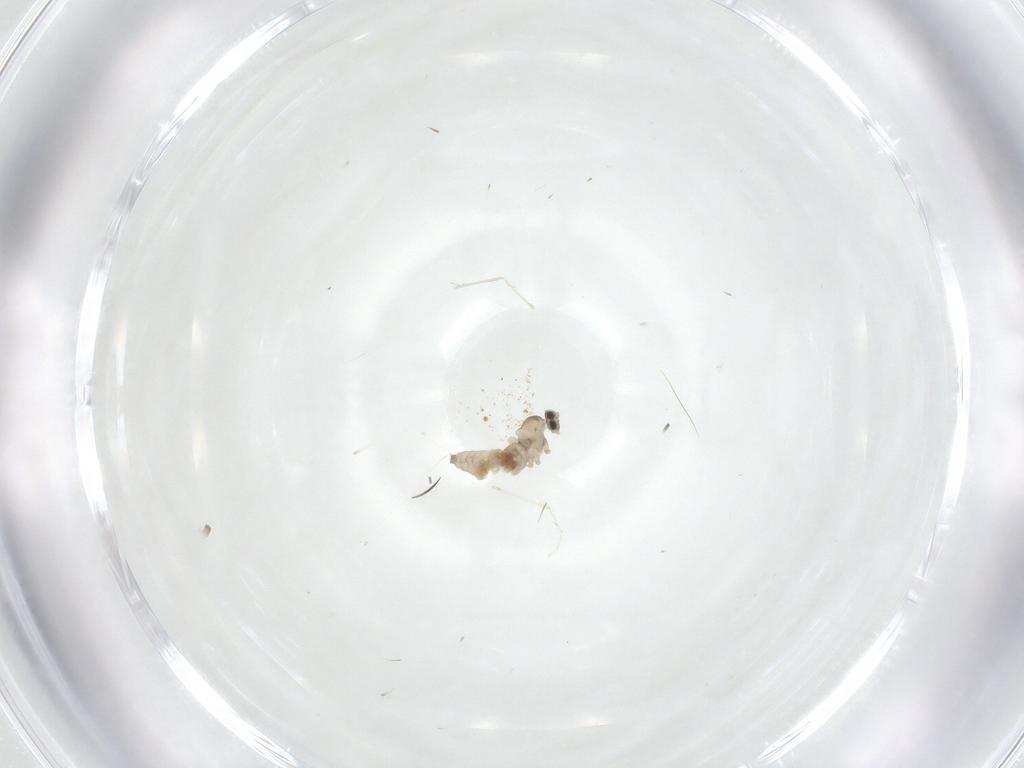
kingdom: Animalia
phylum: Arthropoda
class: Insecta
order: Diptera
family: Cecidomyiidae
